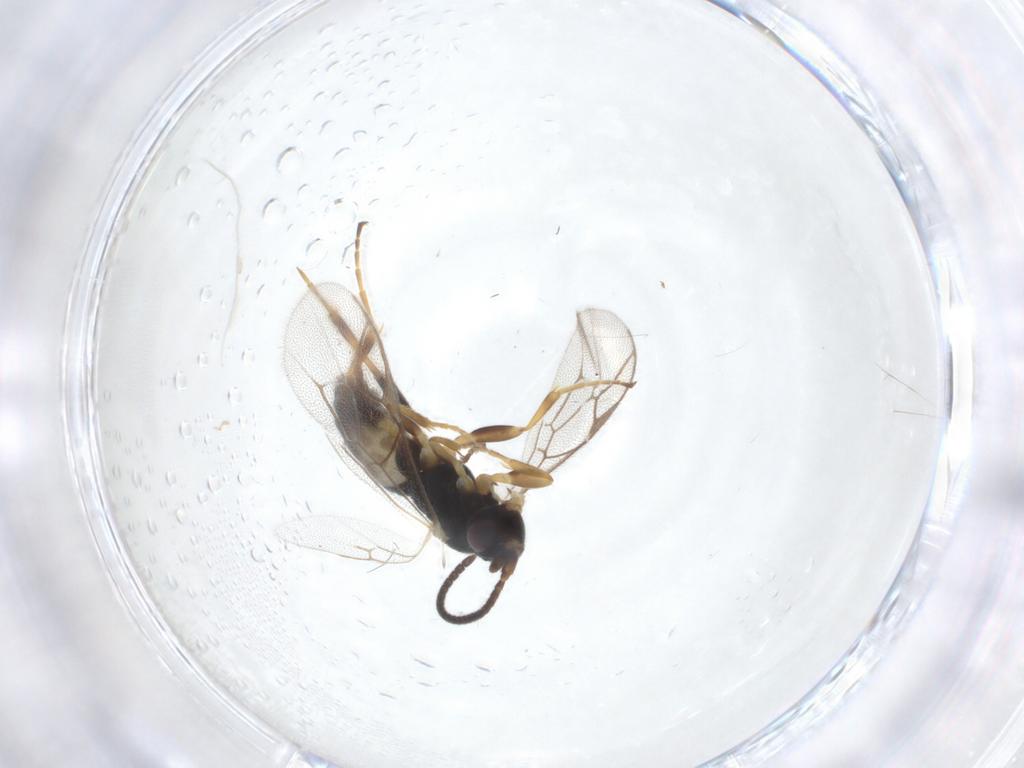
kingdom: Animalia
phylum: Arthropoda
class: Insecta
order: Hymenoptera
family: Ichneumonidae
